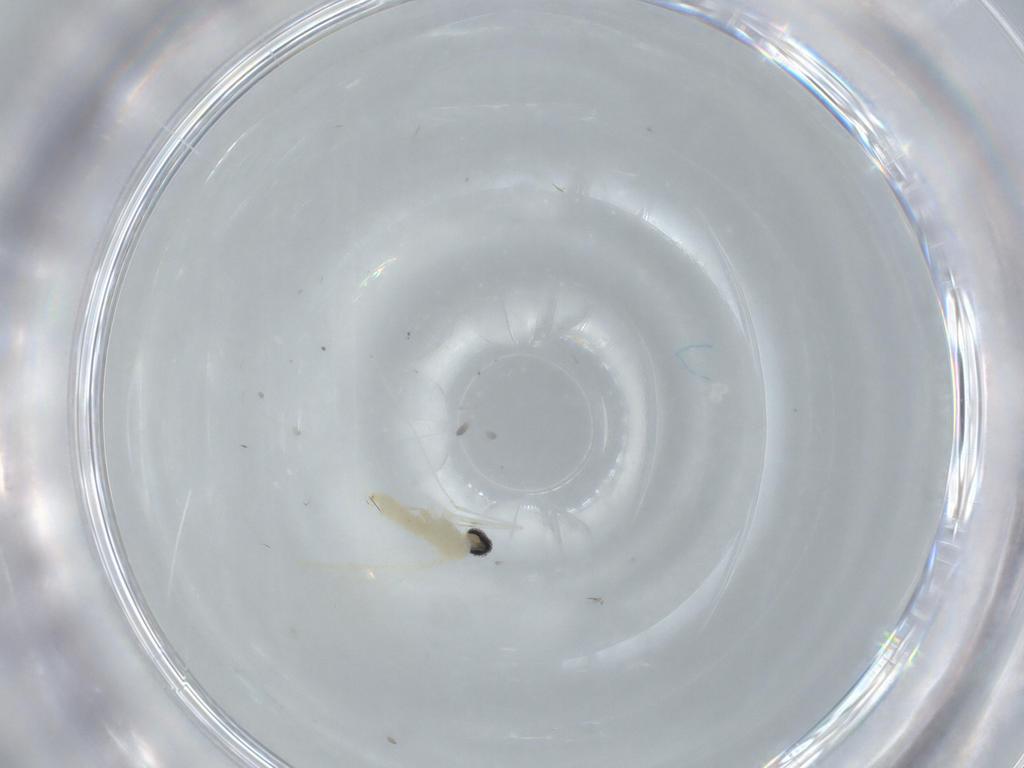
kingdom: Animalia
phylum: Arthropoda
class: Insecta
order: Diptera
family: Cecidomyiidae
